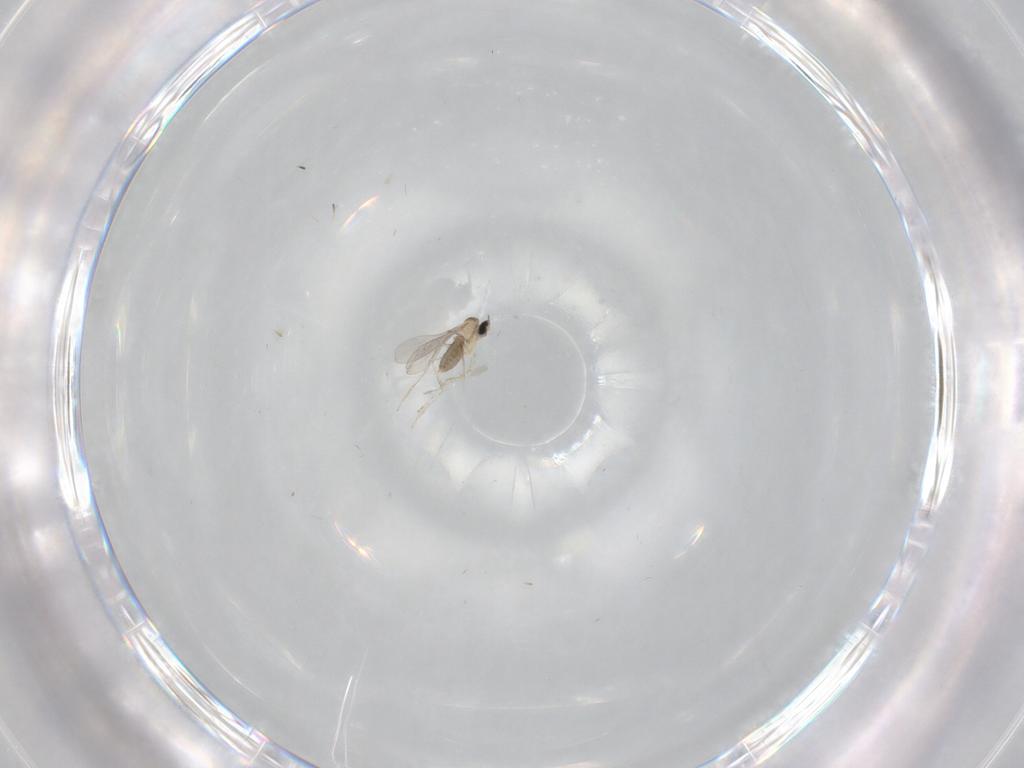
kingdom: Animalia
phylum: Arthropoda
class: Insecta
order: Diptera
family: Cecidomyiidae
